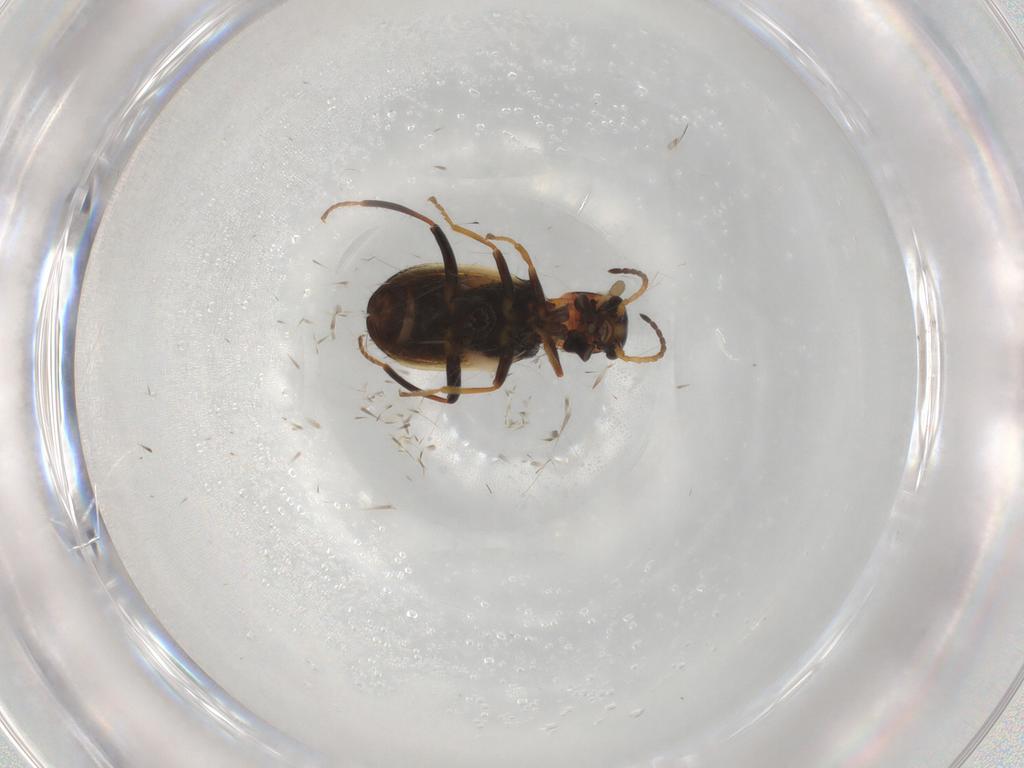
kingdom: Animalia
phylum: Arthropoda
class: Insecta
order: Coleoptera
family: Melyridae
